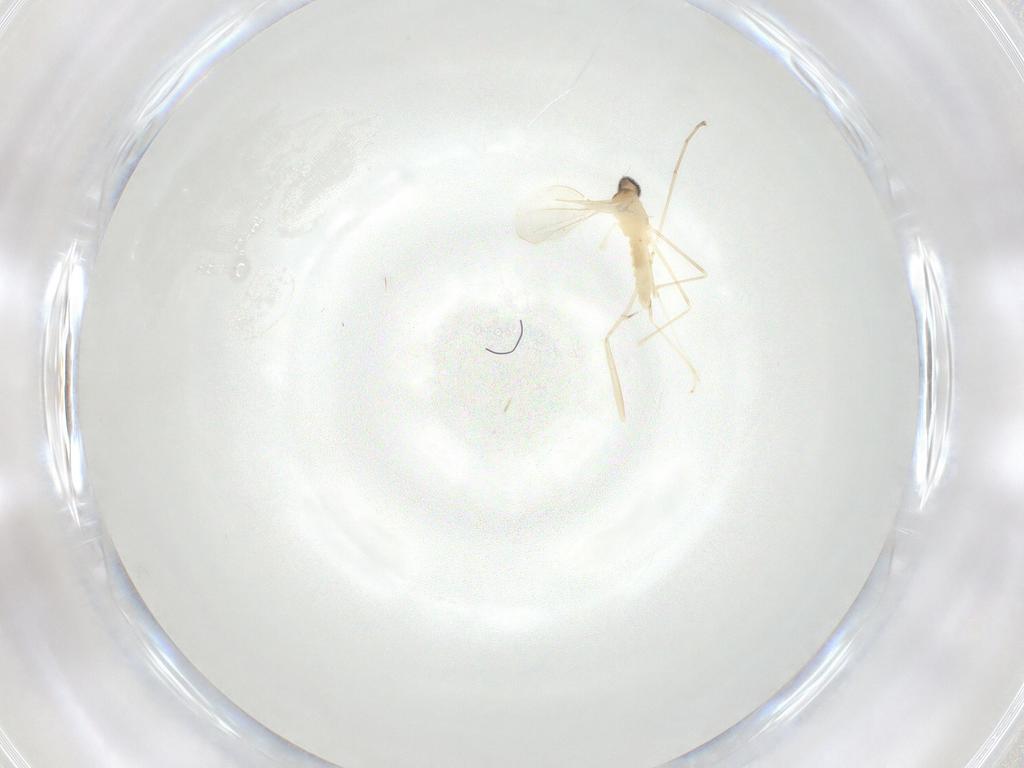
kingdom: Animalia
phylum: Arthropoda
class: Insecta
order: Diptera
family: Cecidomyiidae
